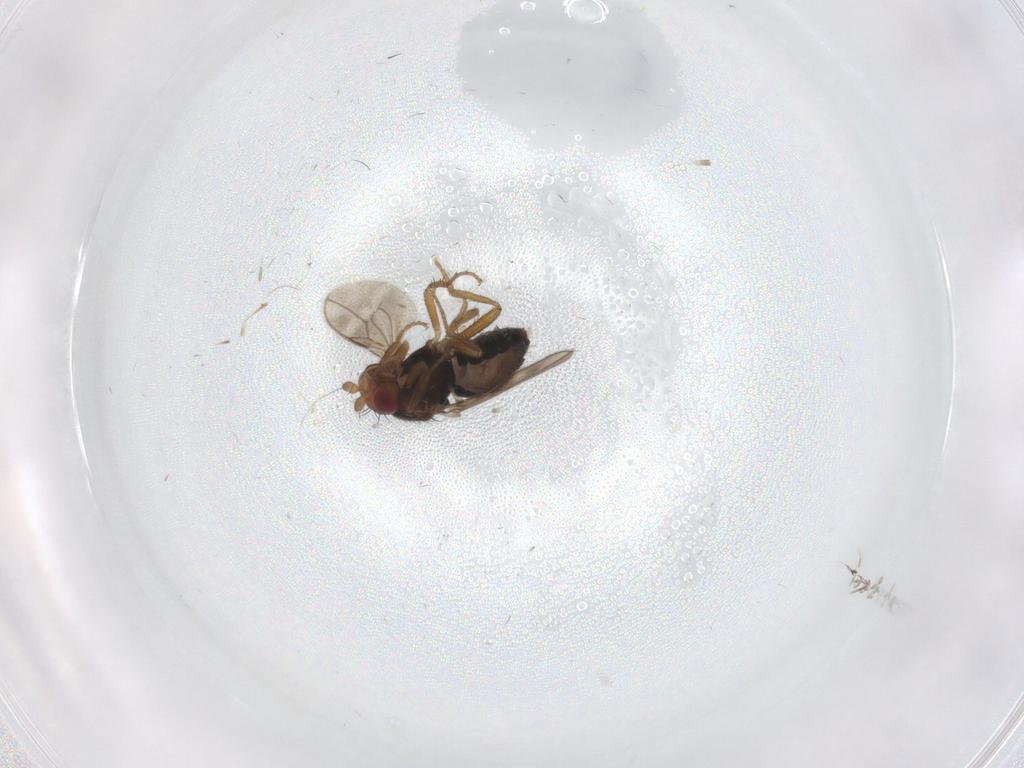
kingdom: Animalia
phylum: Arthropoda
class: Insecta
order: Diptera
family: Sphaeroceridae
